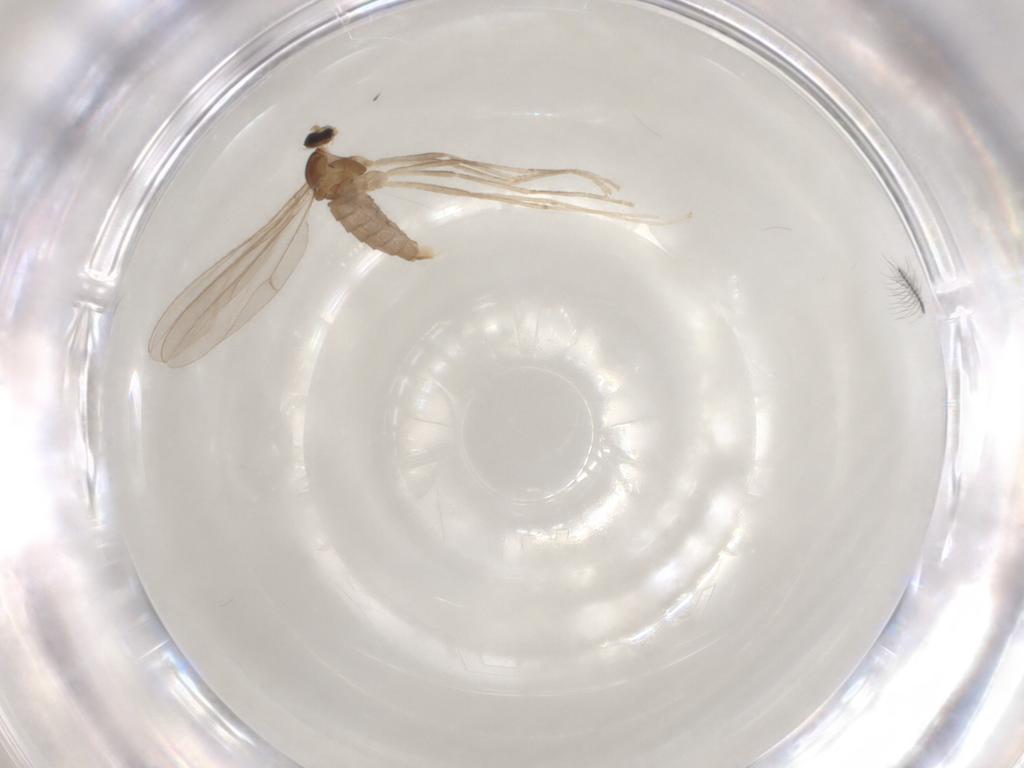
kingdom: Animalia
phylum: Arthropoda
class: Insecta
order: Diptera
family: Cecidomyiidae
